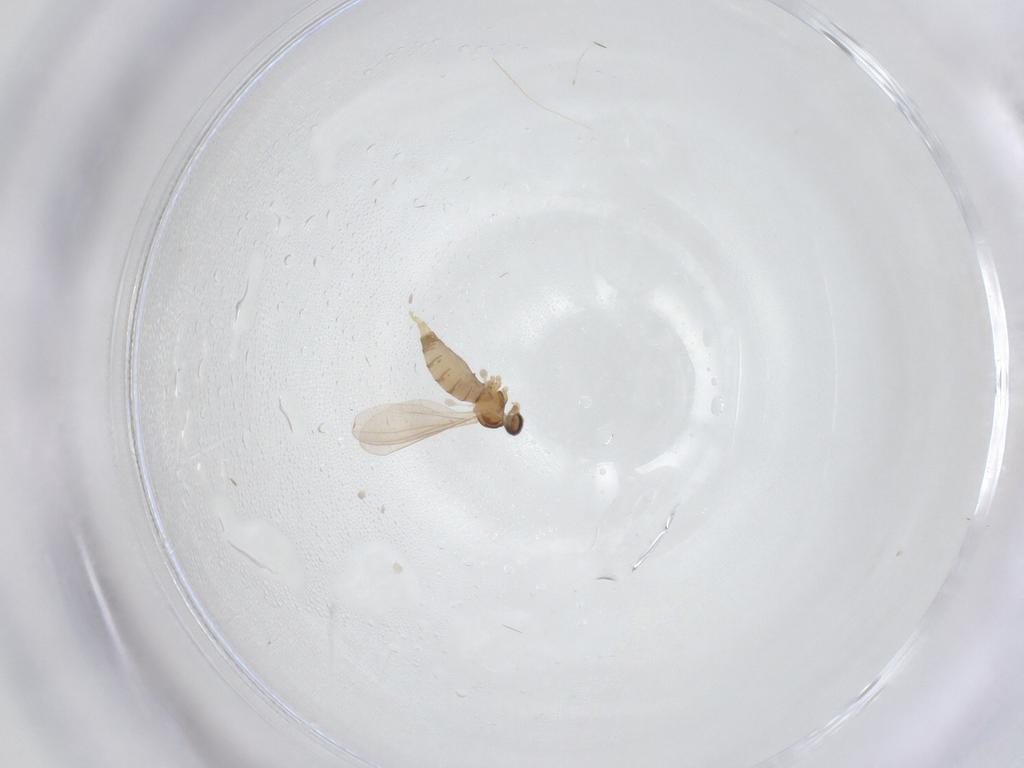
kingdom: Animalia
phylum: Arthropoda
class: Insecta
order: Diptera
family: Cecidomyiidae
